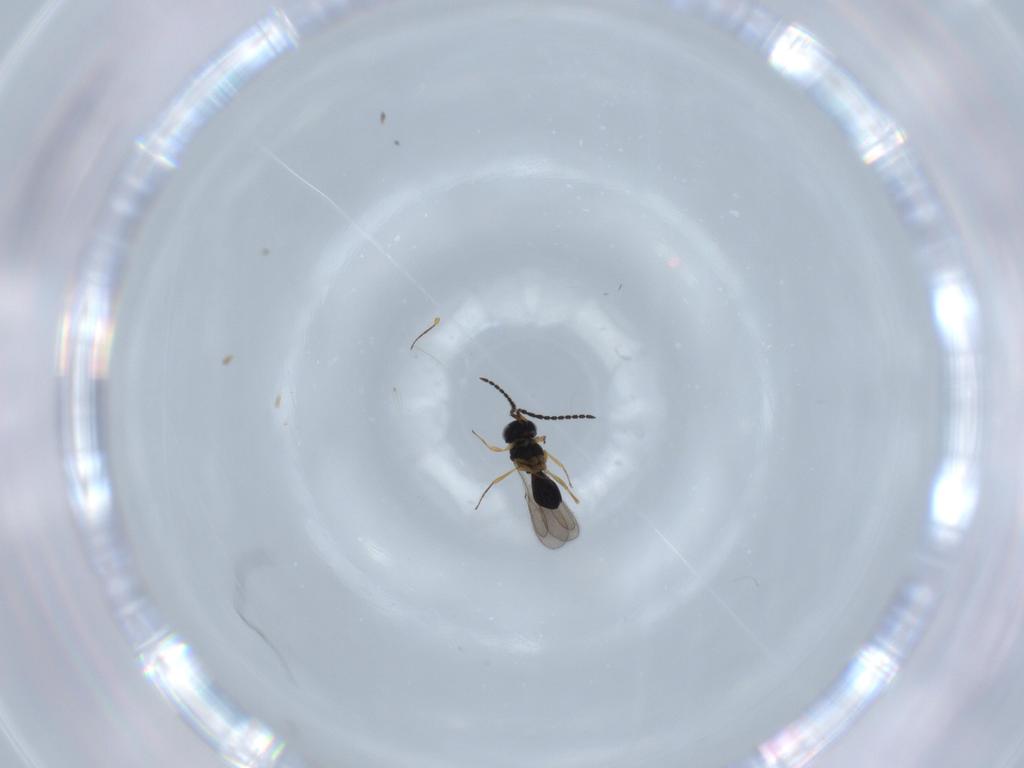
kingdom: Animalia
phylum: Arthropoda
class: Insecta
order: Hymenoptera
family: Scelionidae
